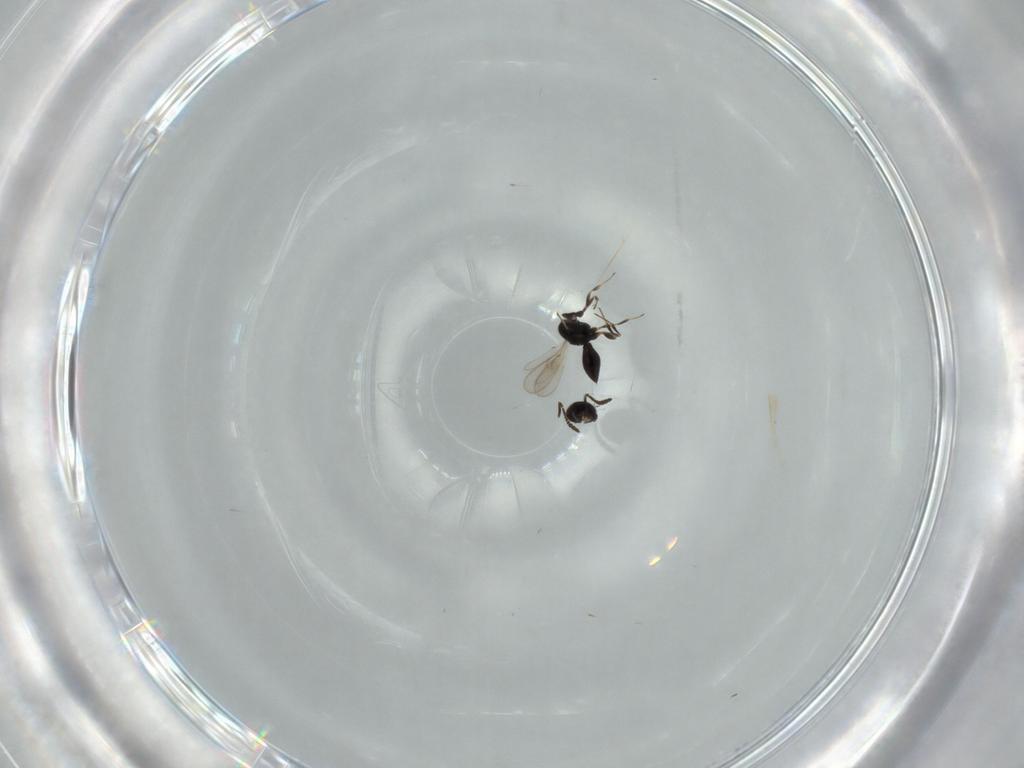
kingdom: Animalia
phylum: Arthropoda
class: Insecta
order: Hymenoptera
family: Scelionidae
